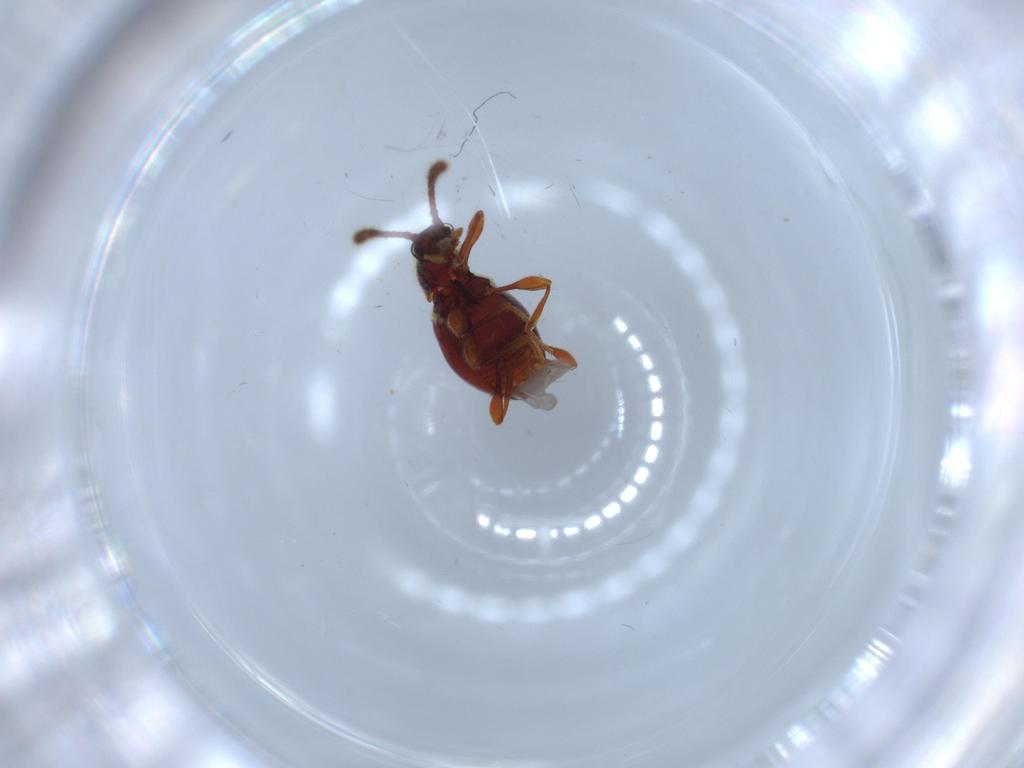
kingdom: Animalia
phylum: Arthropoda
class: Insecta
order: Coleoptera
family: Staphylinidae
